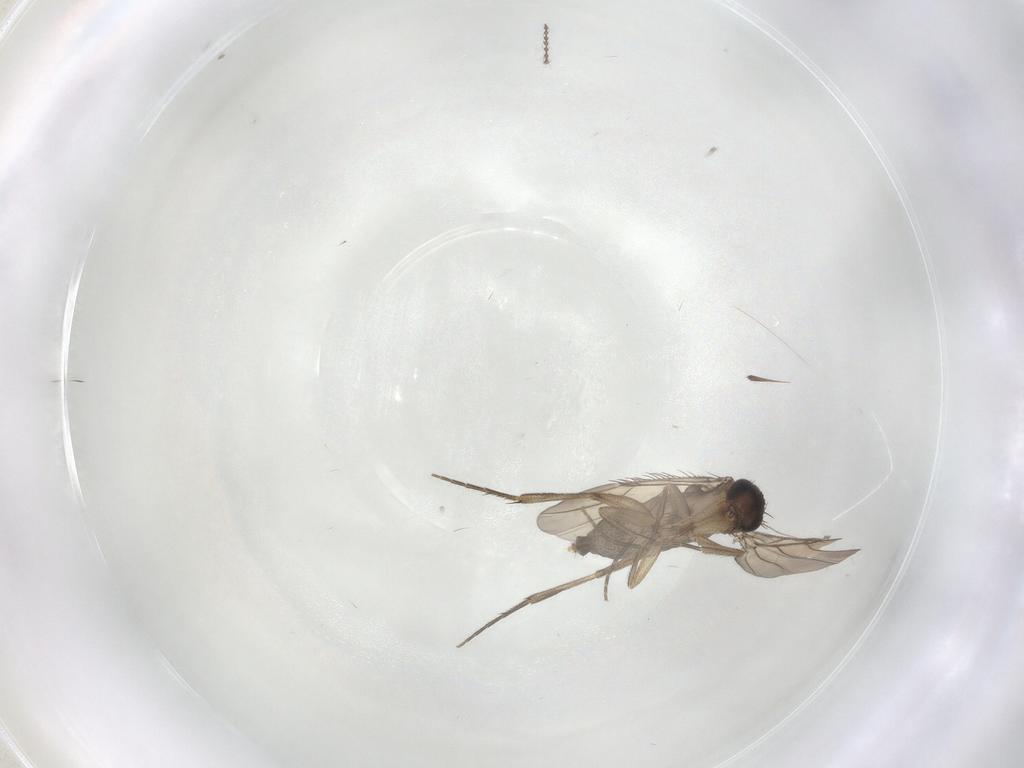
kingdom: Animalia
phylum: Arthropoda
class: Insecta
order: Diptera
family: Phoridae
